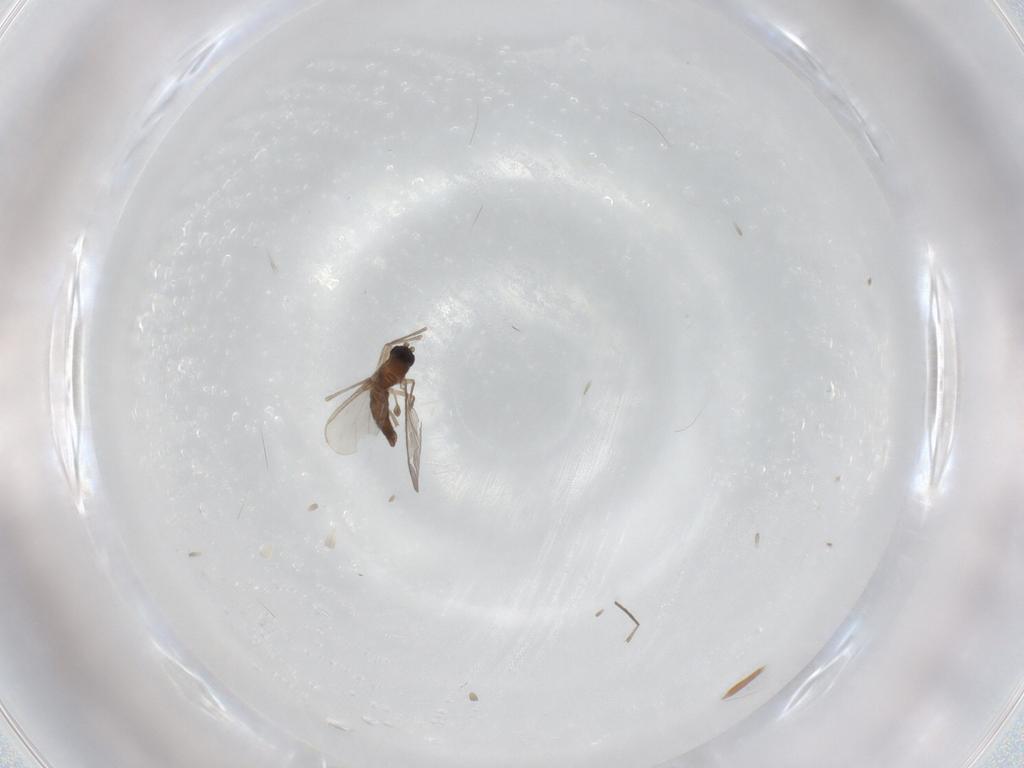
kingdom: Animalia
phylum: Arthropoda
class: Insecta
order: Diptera
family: Sciaridae
